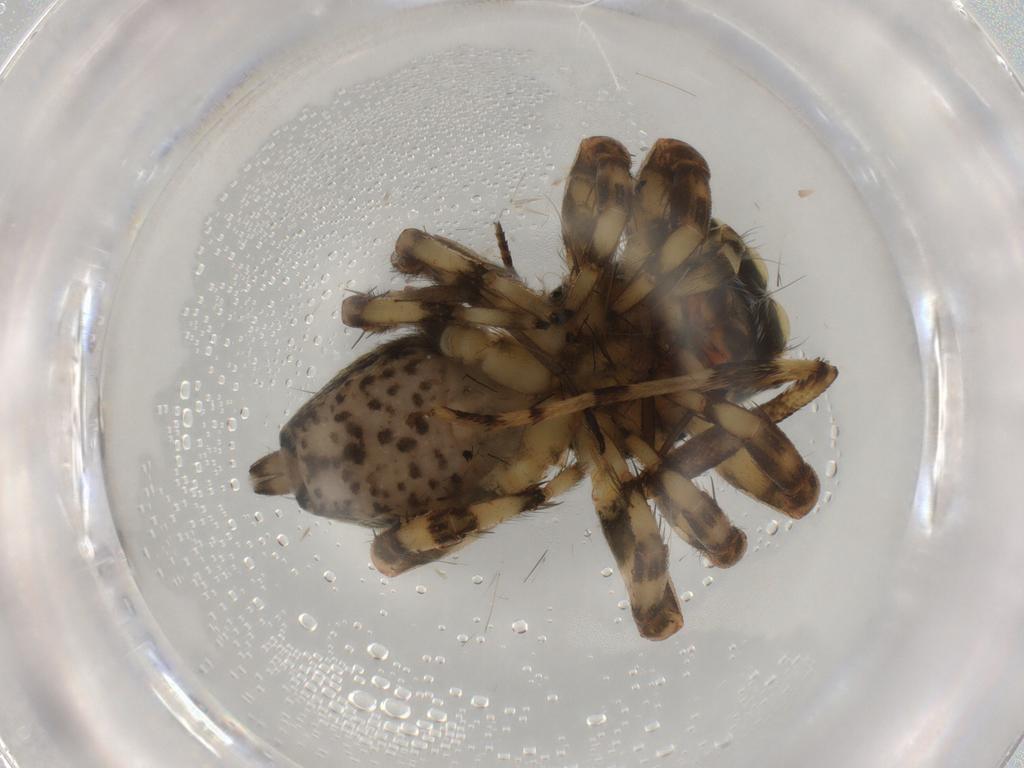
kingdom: Animalia
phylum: Arthropoda
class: Arachnida
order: Araneae
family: Salticidae
